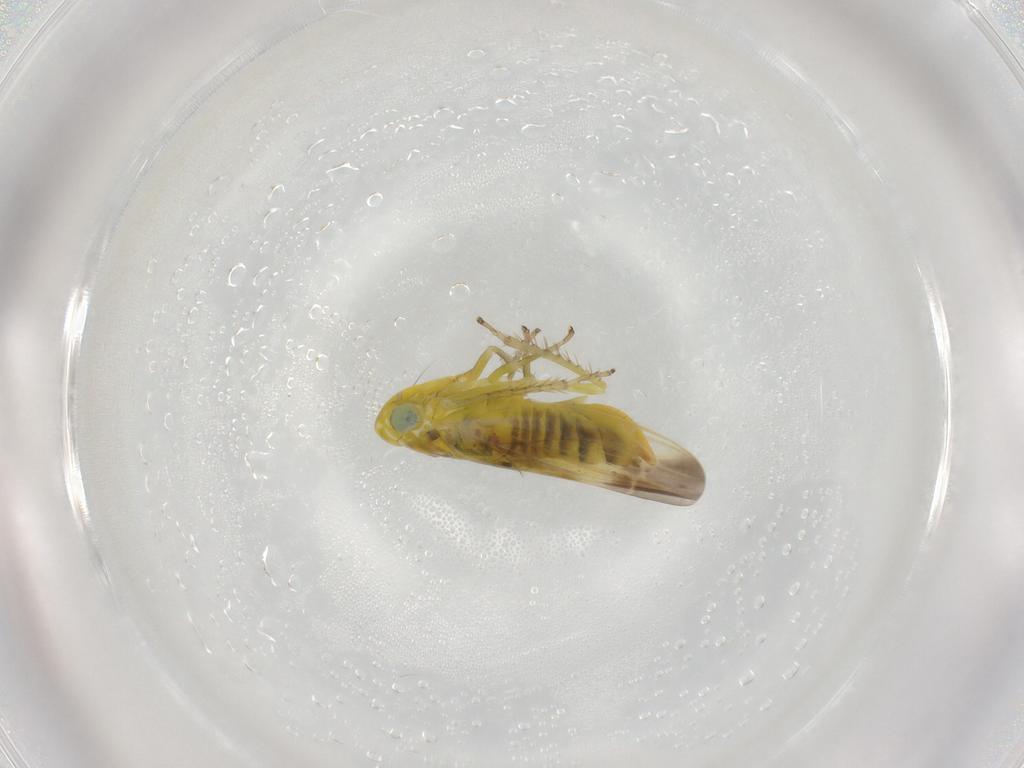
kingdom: Animalia
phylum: Arthropoda
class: Insecta
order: Hemiptera
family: Cicadellidae
